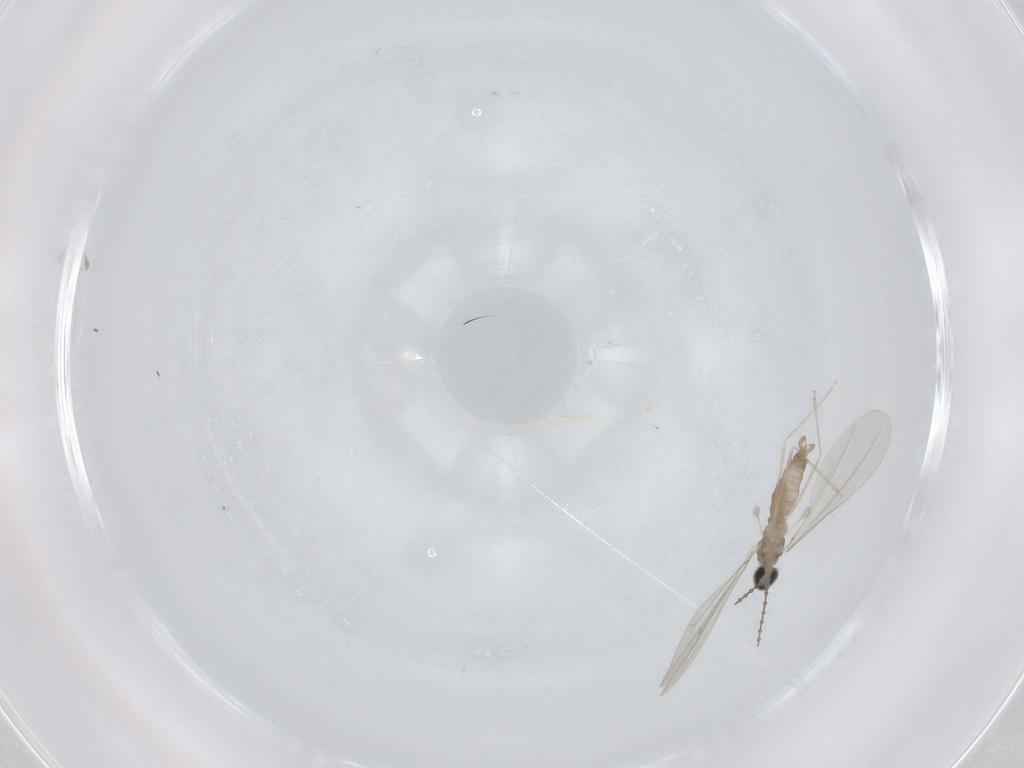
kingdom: Animalia
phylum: Arthropoda
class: Insecta
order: Diptera
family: Cecidomyiidae
